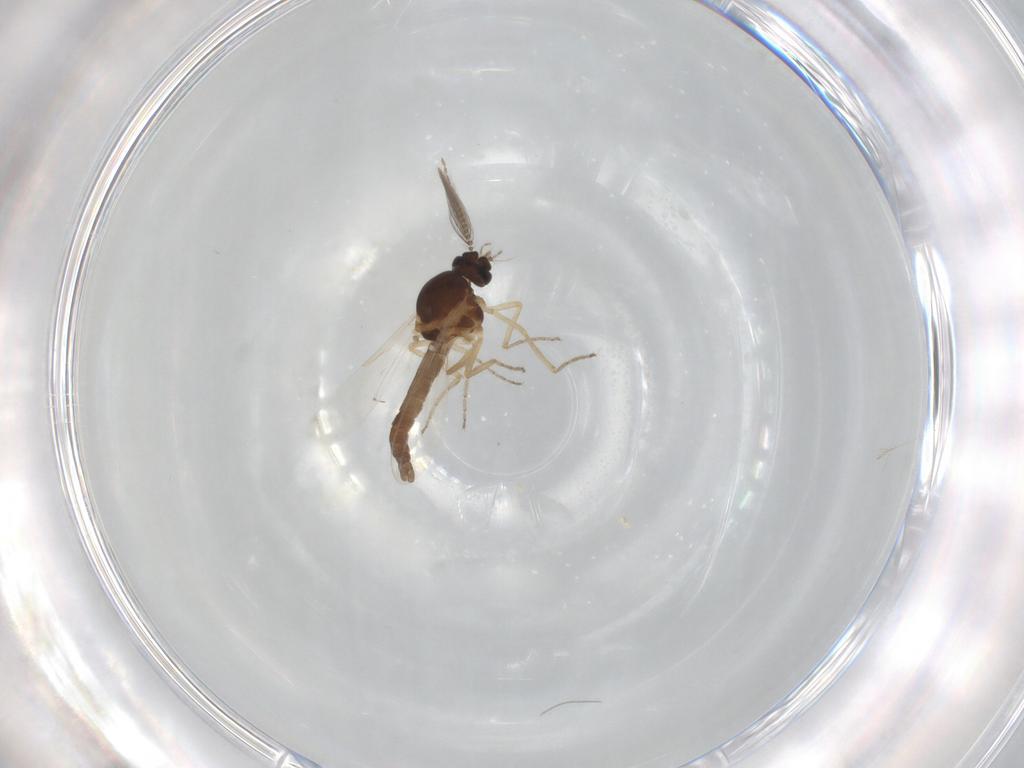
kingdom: Animalia
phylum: Arthropoda
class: Insecta
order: Diptera
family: Ceratopogonidae
